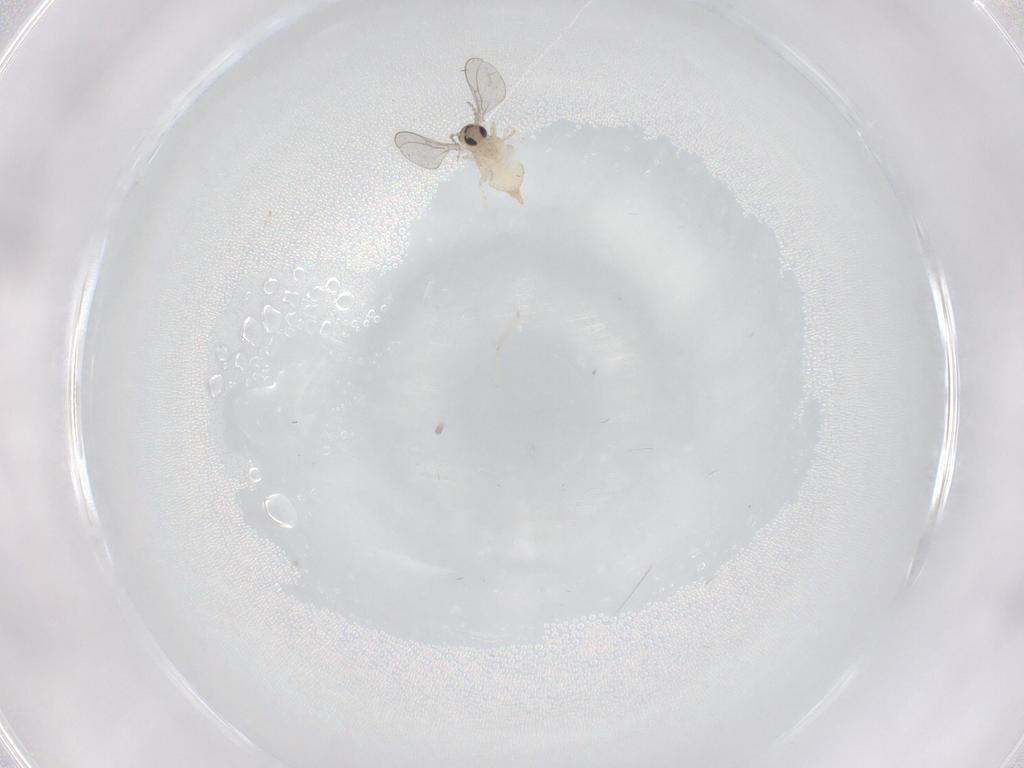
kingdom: Animalia
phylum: Arthropoda
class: Insecta
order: Diptera
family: Cecidomyiidae
